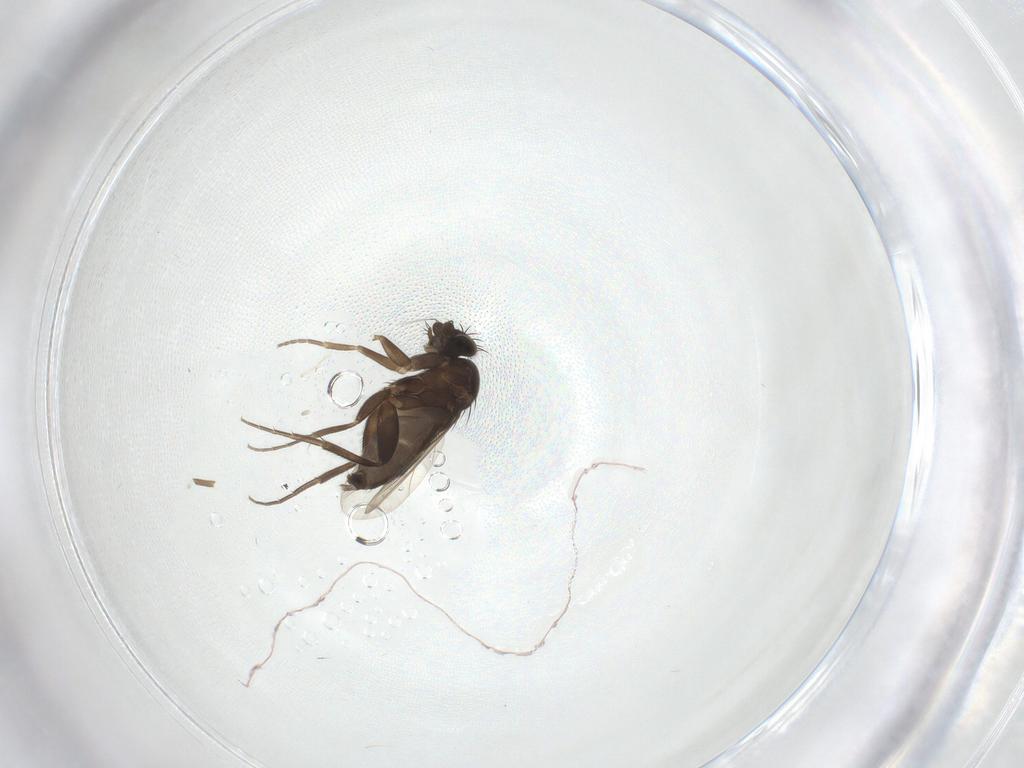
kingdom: Animalia
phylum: Arthropoda
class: Insecta
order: Diptera
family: Phoridae
